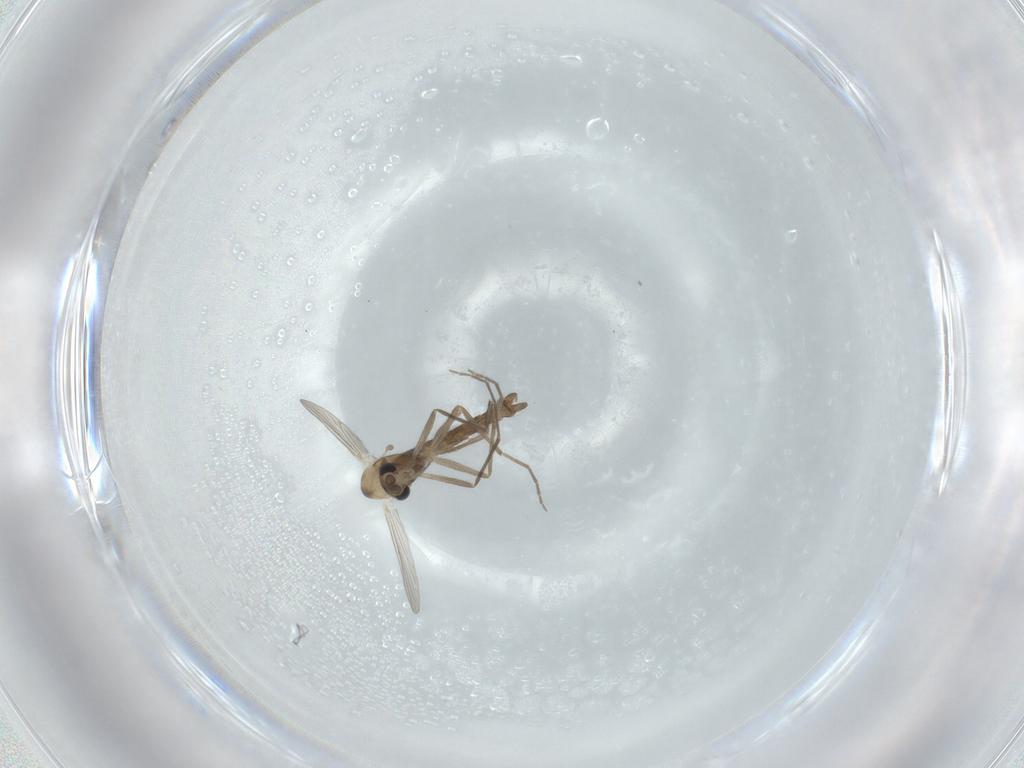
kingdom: Animalia
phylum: Arthropoda
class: Insecta
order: Diptera
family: Chironomidae
